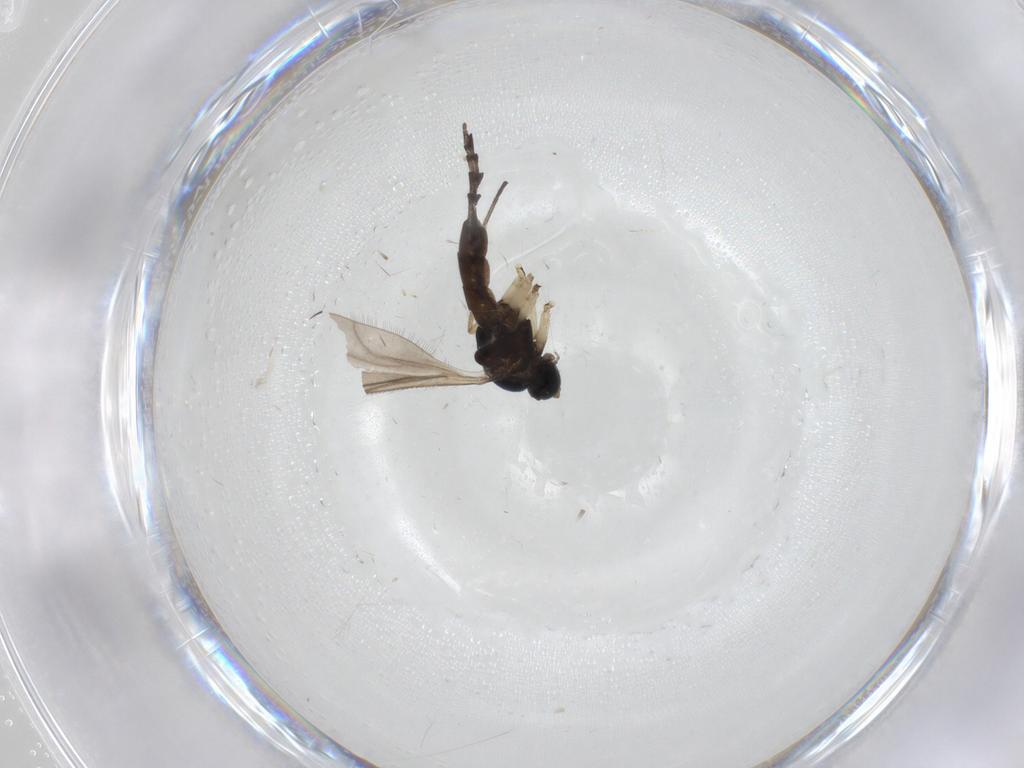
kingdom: Animalia
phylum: Arthropoda
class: Insecta
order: Diptera
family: Sciaridae
